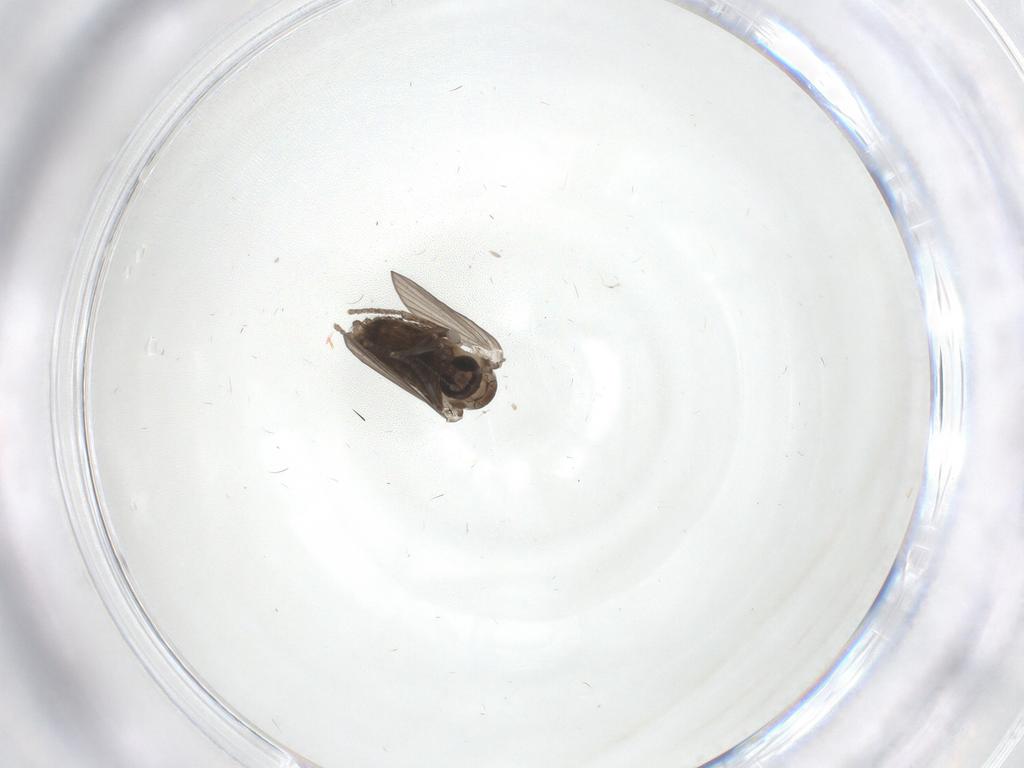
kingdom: Animalia
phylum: Arthropoda
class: Insecta
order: Diptera
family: Psychodidae
